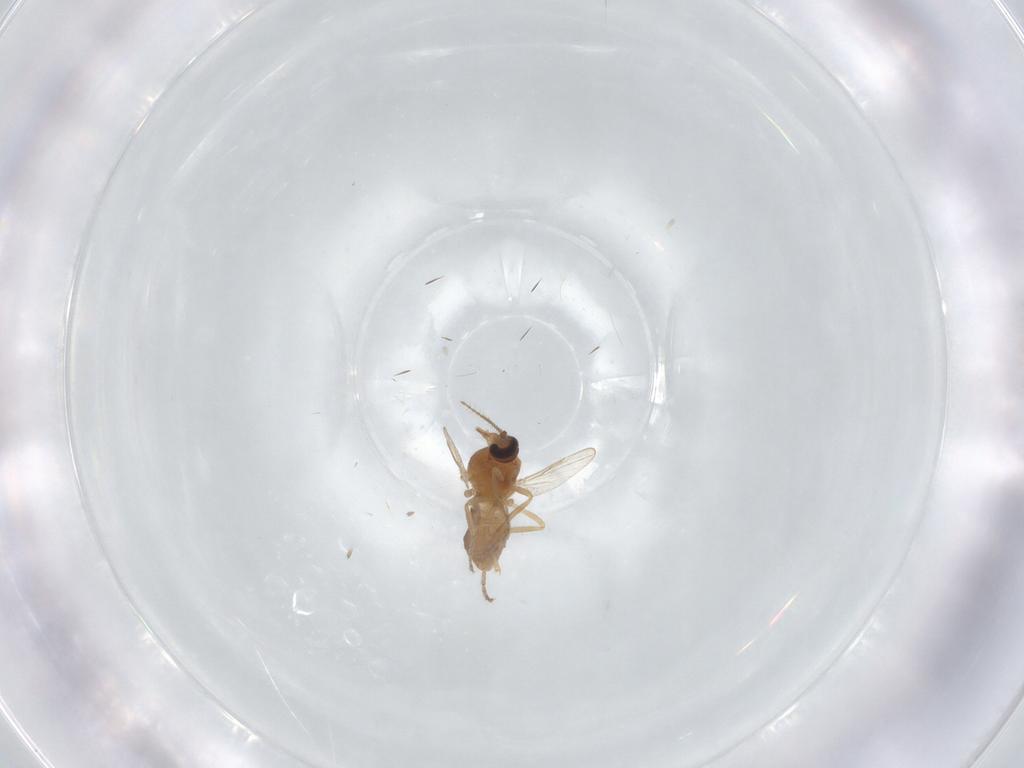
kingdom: Animalia
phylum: Arthropoda
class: Insecta
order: Diptera
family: Ceratopogonidae
